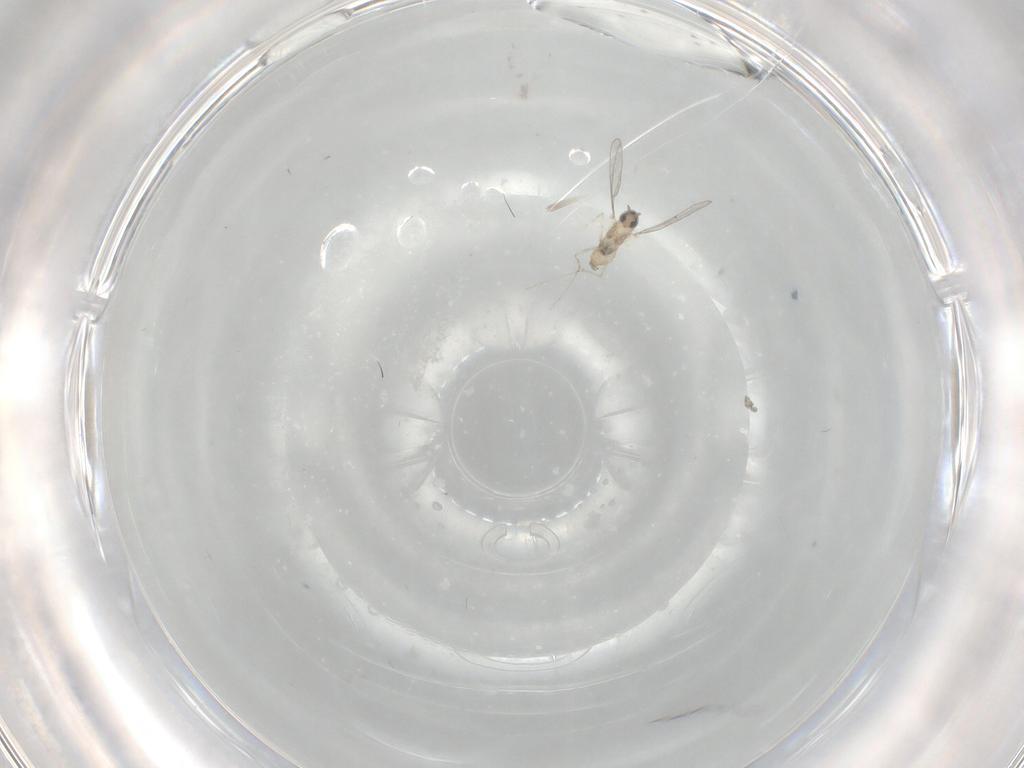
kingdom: Animalia
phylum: Arthropoda
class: Insecta
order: Diptera
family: Cecidomyiidae
